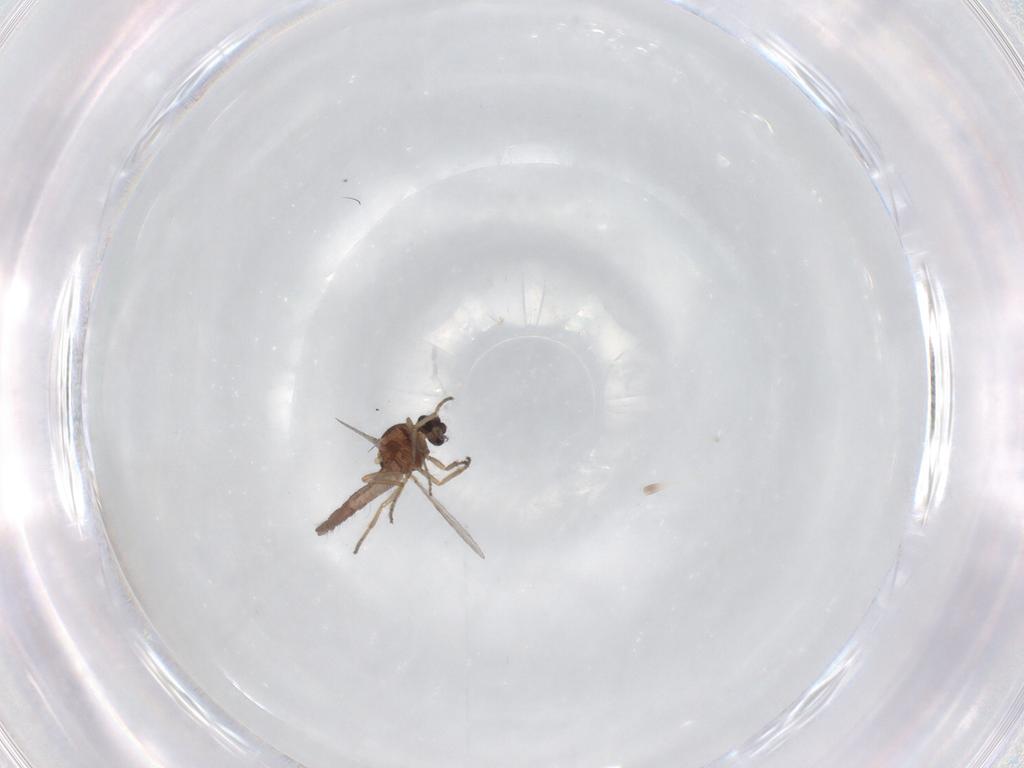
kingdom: Animalia
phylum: Arthropoda
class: Insecta
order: Diptera
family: Ceratopogonidae
